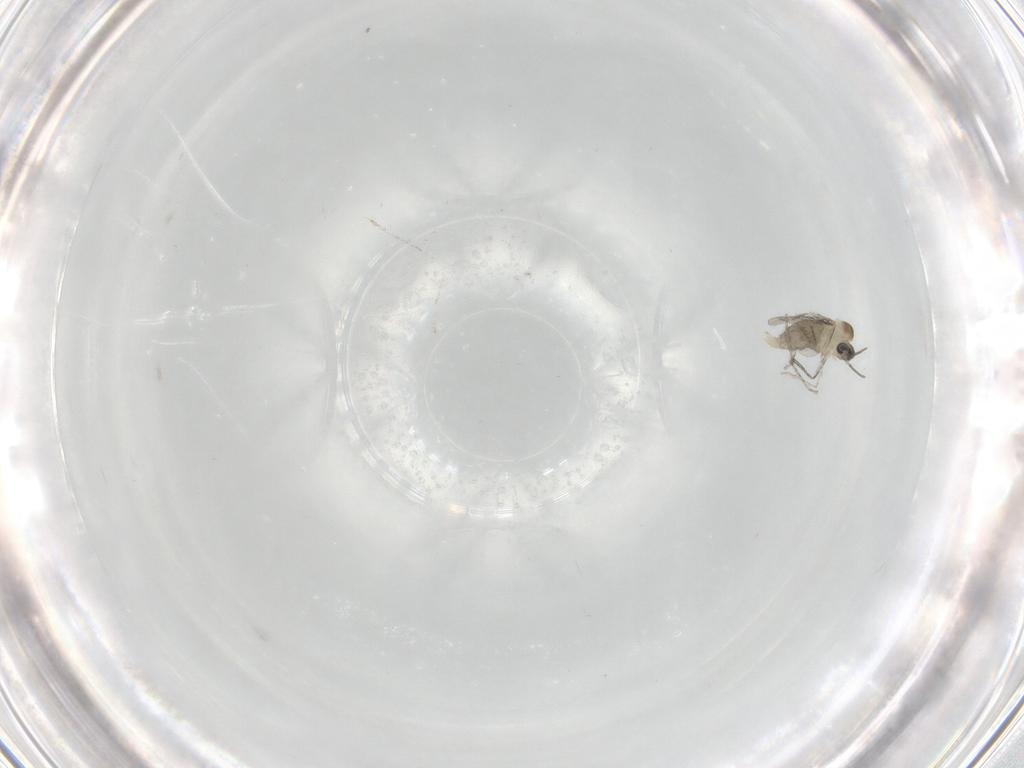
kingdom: Animalia
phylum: Arthropoda
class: Insecta
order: Diptera
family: Cecidomyiidae
